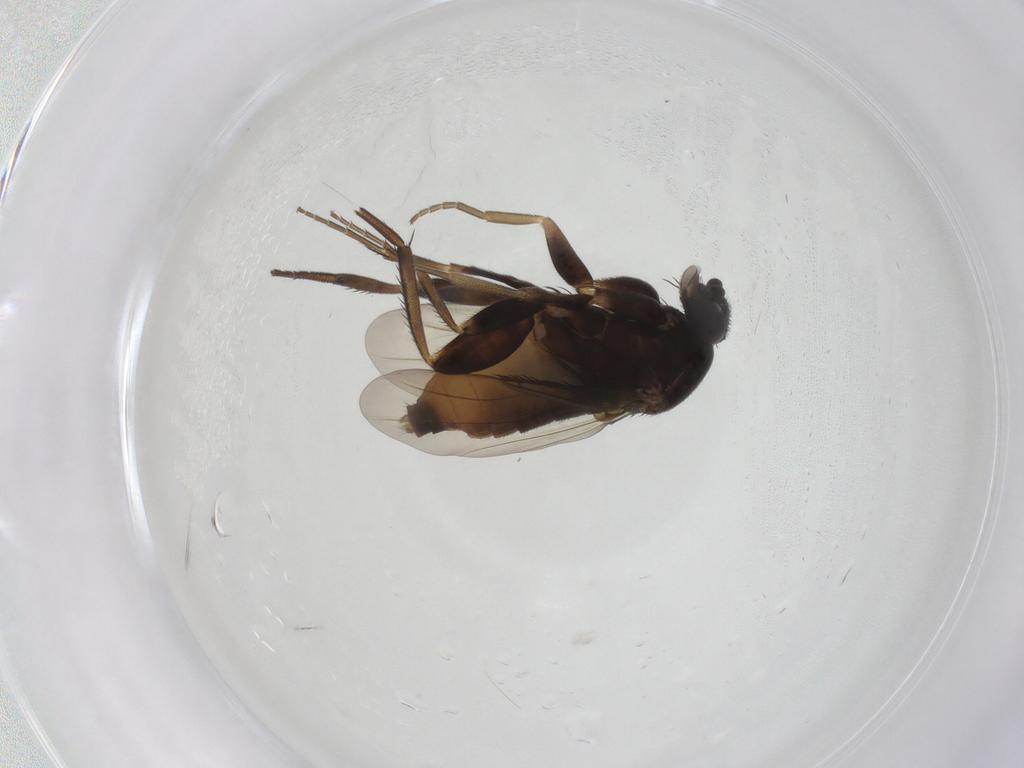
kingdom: Animalia
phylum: Arthropoda
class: Insecta
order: Diptera
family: Phoridae
